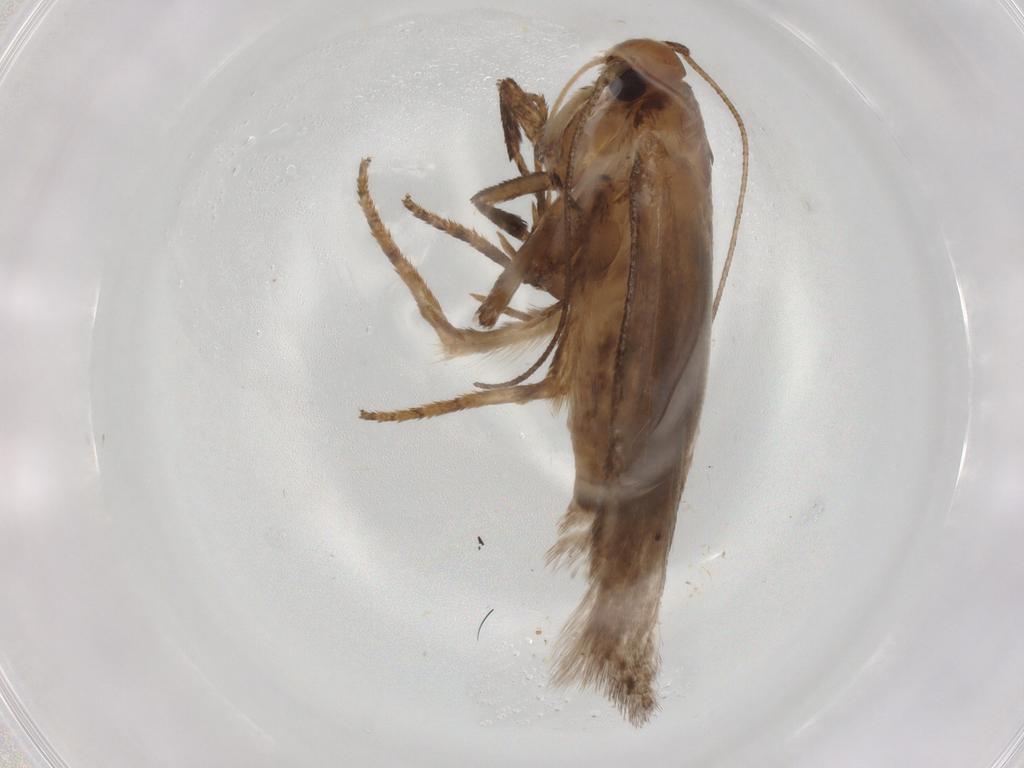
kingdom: Animalia
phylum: Arthropoda
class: Insecta
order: Lepidoptera
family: Gelechiidae
